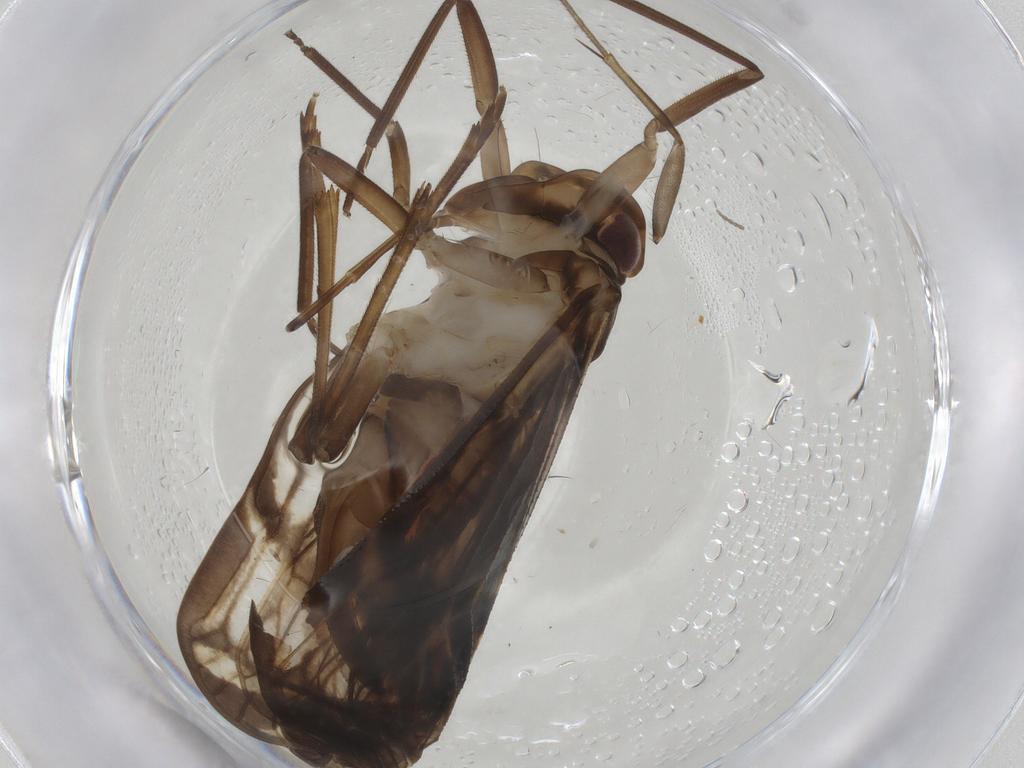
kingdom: Animalia
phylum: Arthropoda
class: Insecta
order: Hemiptera
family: Cixiidae
